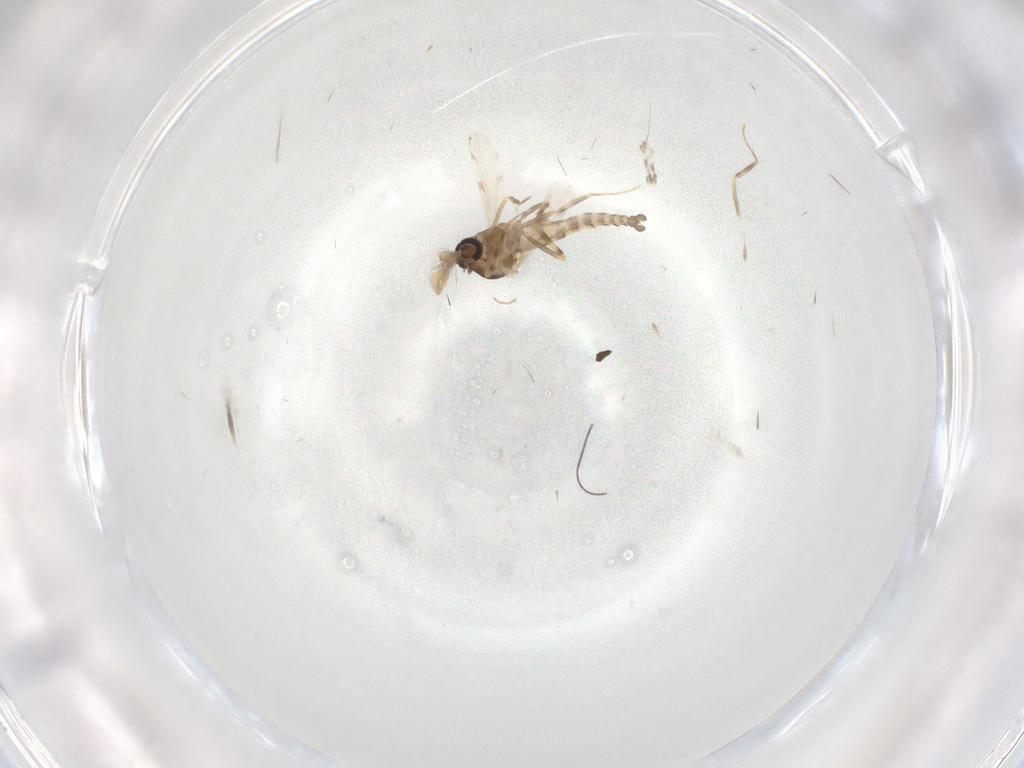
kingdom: Animalia
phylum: Arthropoda
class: Insecta
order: Diptera
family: Ceratopogonidae
